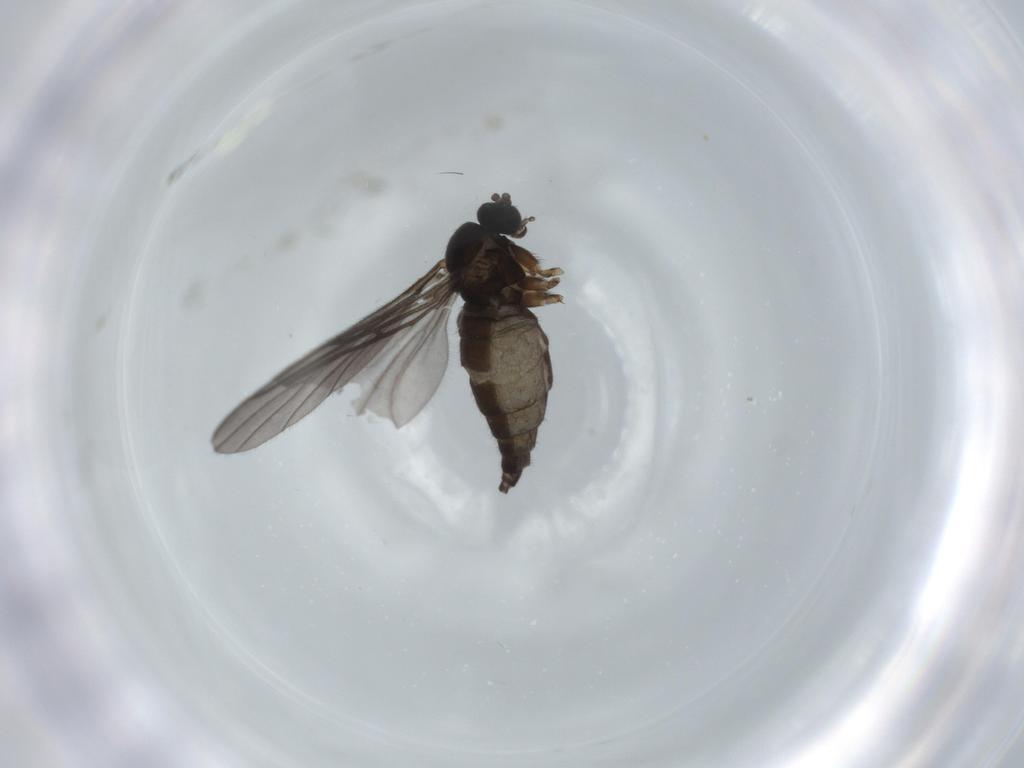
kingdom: Animalia
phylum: Arthropoda
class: Insecta
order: Diptera
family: Sciaridae
